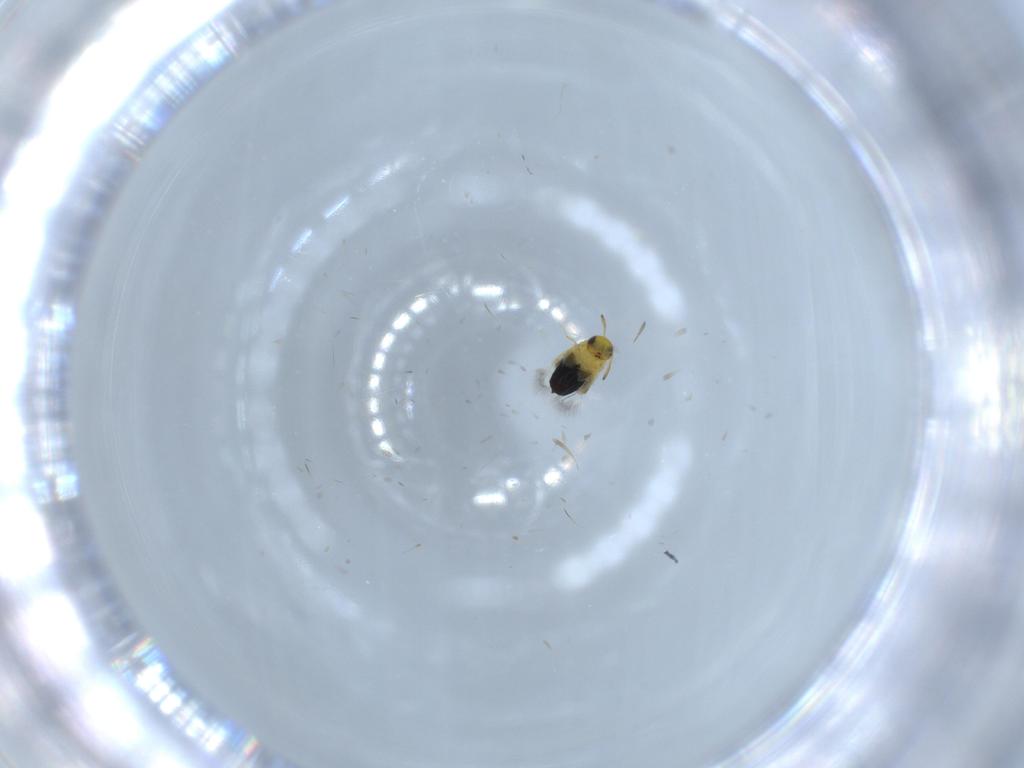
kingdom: Animalia
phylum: Arthropoda
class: Insecta
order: Hymenoptera
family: Signiphoridae
